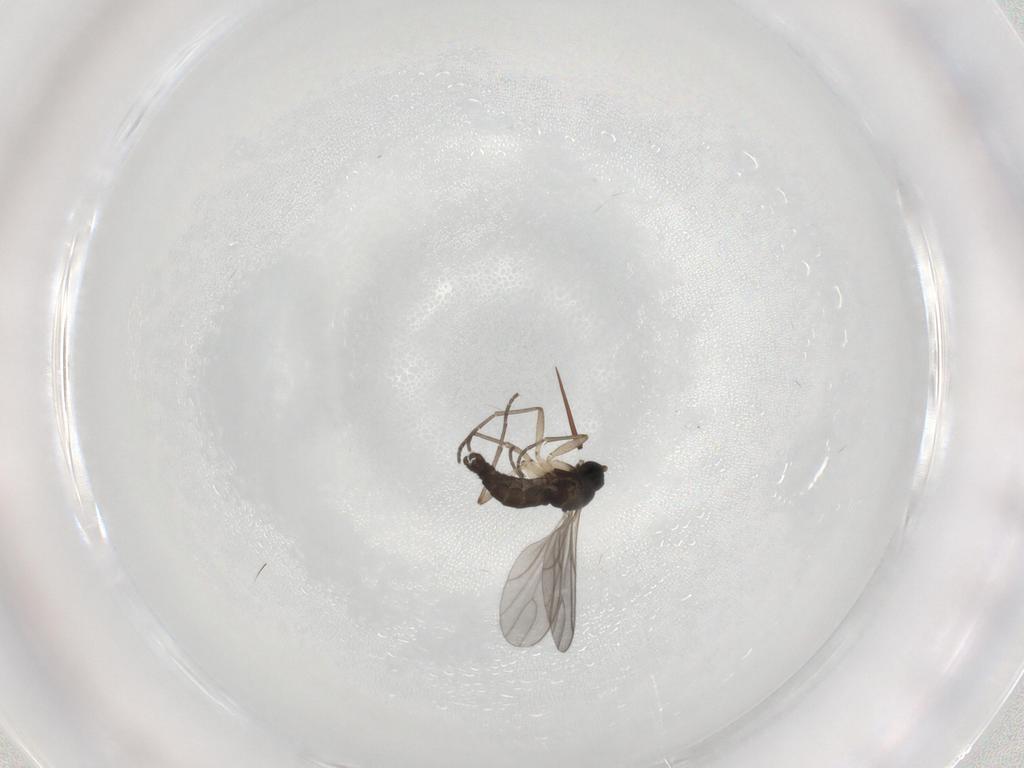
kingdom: Animalia
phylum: Arthropoda
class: Insecta
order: Diptera
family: Sciaridae
